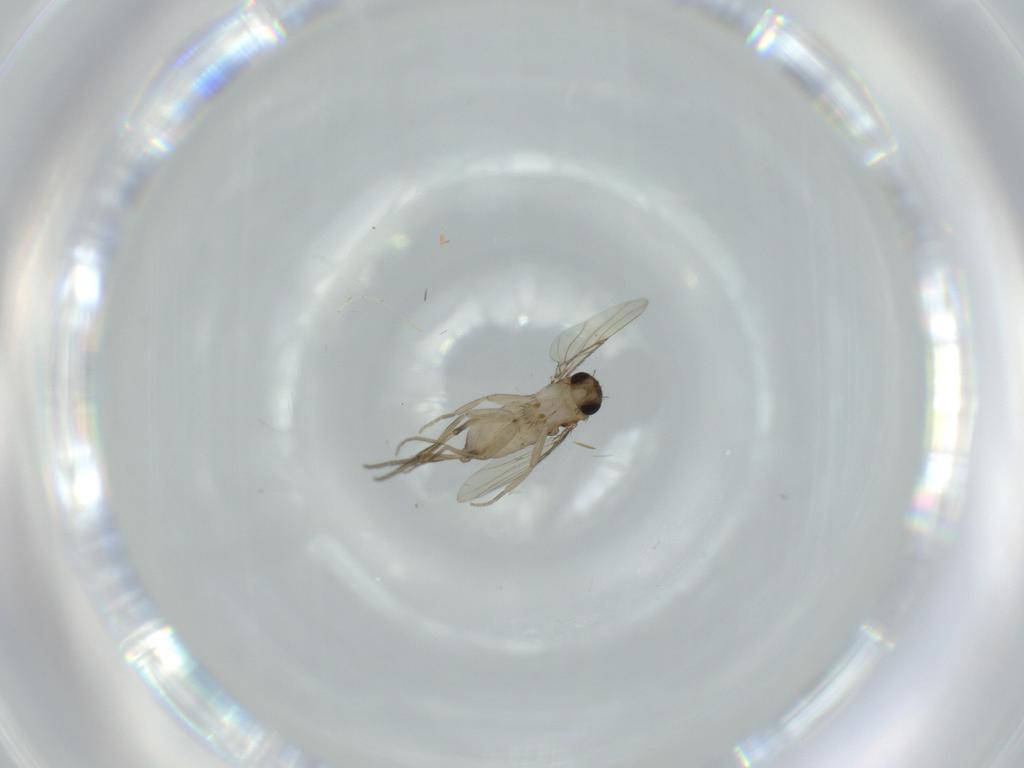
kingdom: Animalia
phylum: Arthropoda
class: Insecta
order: Diptera
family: Phoridae
